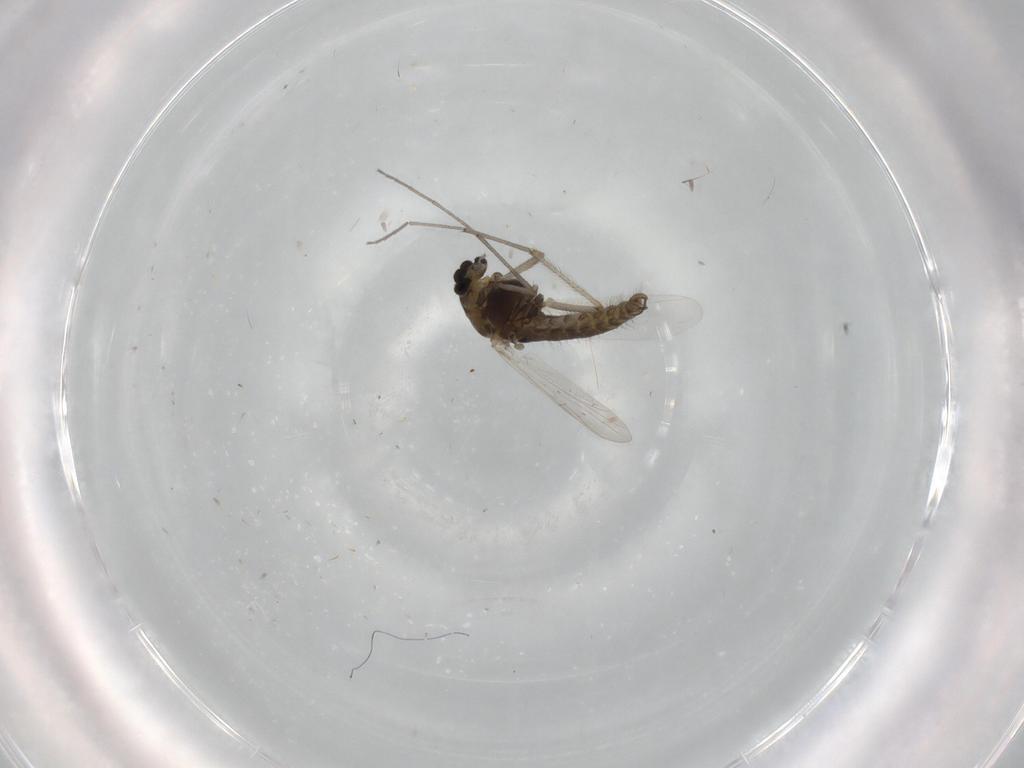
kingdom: Animalia
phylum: Arthropoda
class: Insecta
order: Diptera
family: Chironomidae
